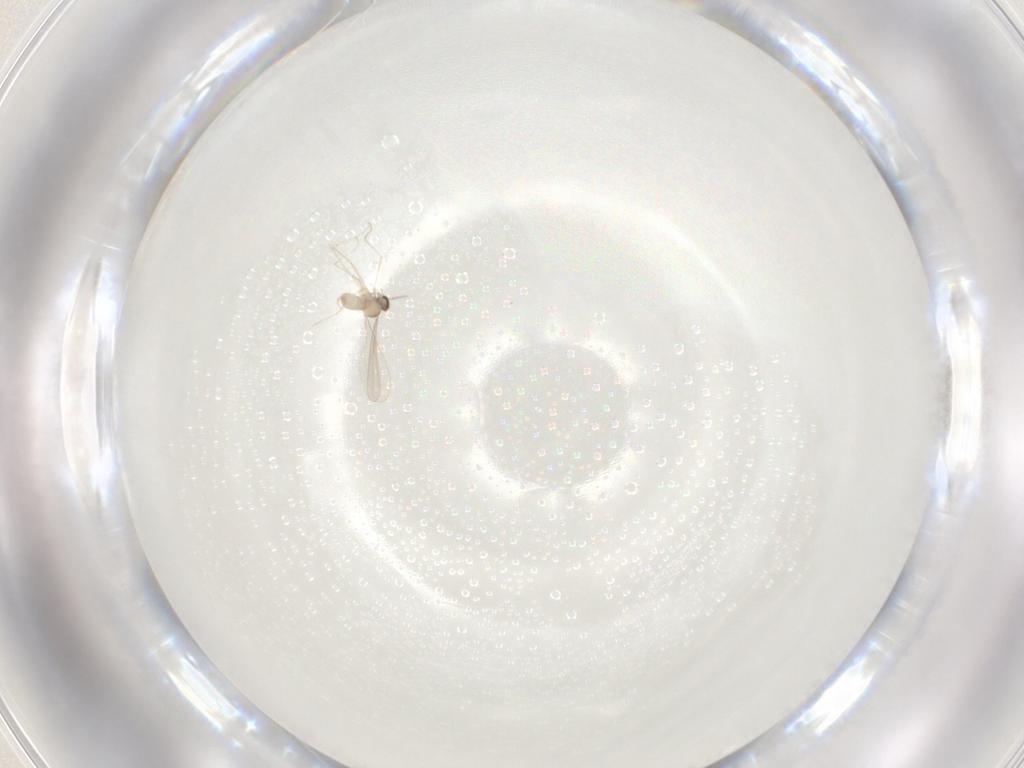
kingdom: Animalia
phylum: Arthropoda
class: Insecta
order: Diptera
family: Cecidomyiidae
